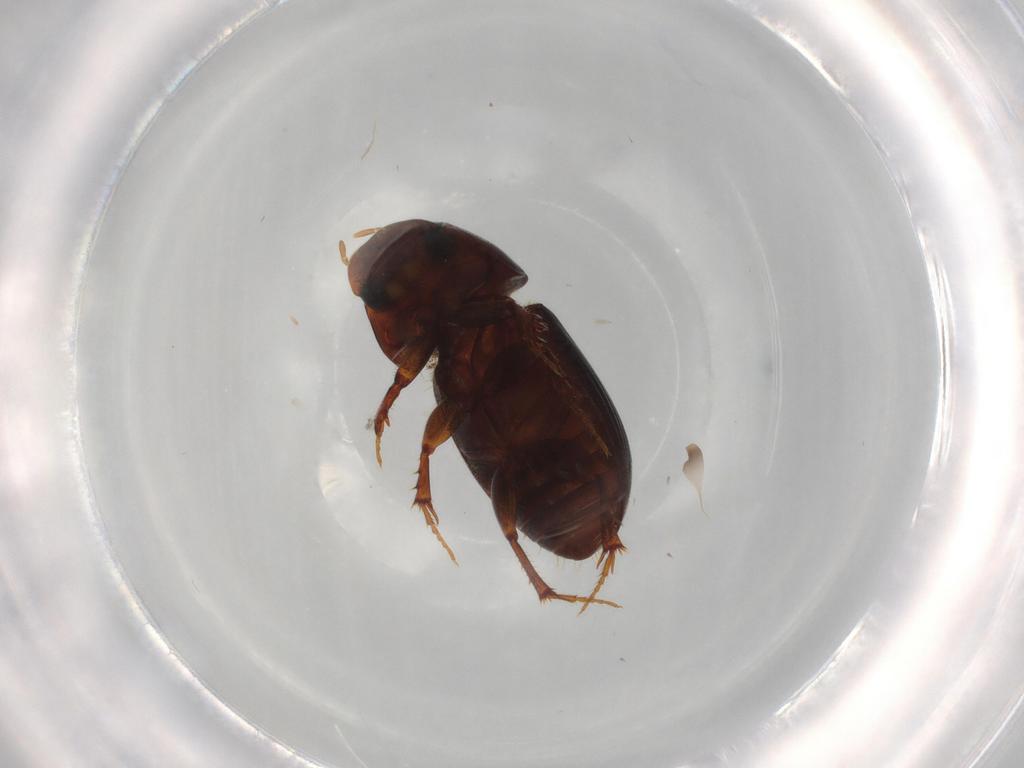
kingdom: Animalia
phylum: Arthropoda
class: Insecta
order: Coleoptera
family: Scarabaeidae
